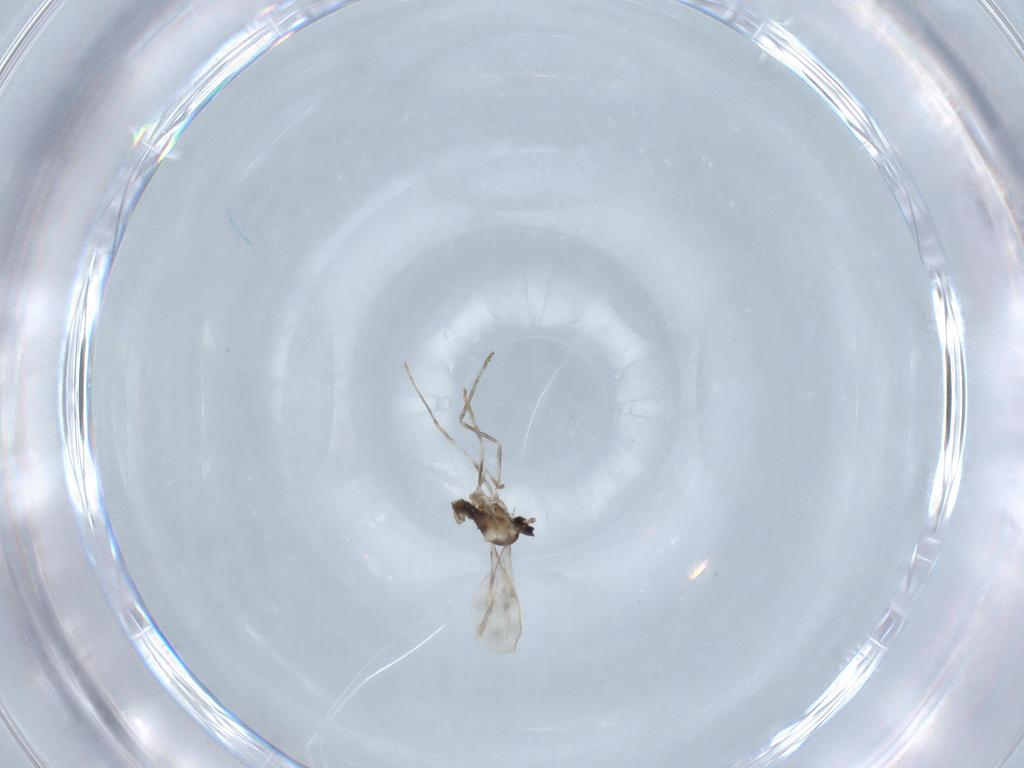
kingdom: Animalia
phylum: Arthropoda
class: Insecta
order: Diptera
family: Cecidomyiidae
